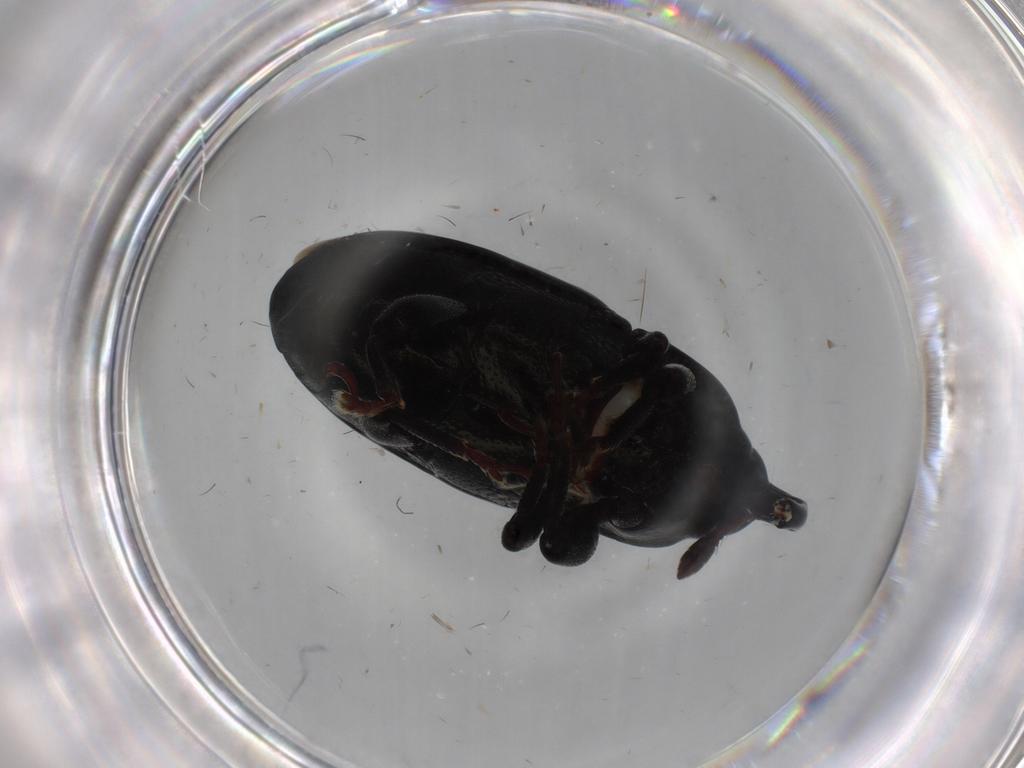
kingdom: Animalia
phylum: Arthropoda
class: Insecta
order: Coleoptera
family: Curculionidae
